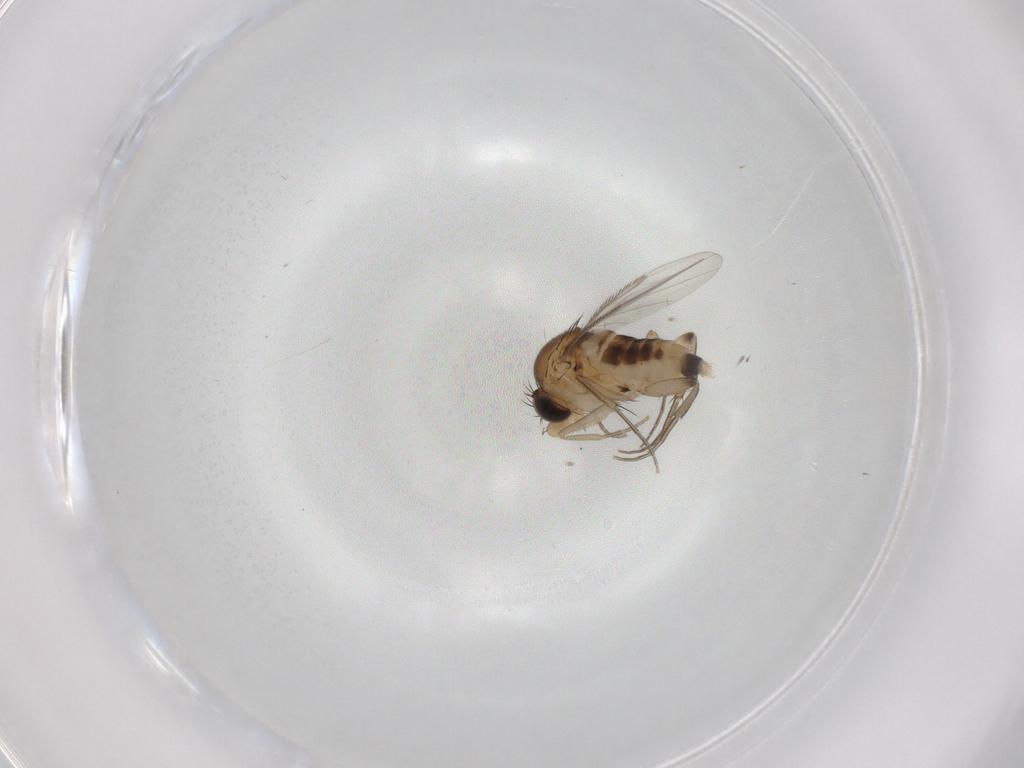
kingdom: Animalia
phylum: Arthropoda
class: Insecta
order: Diptera
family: Phoridae
